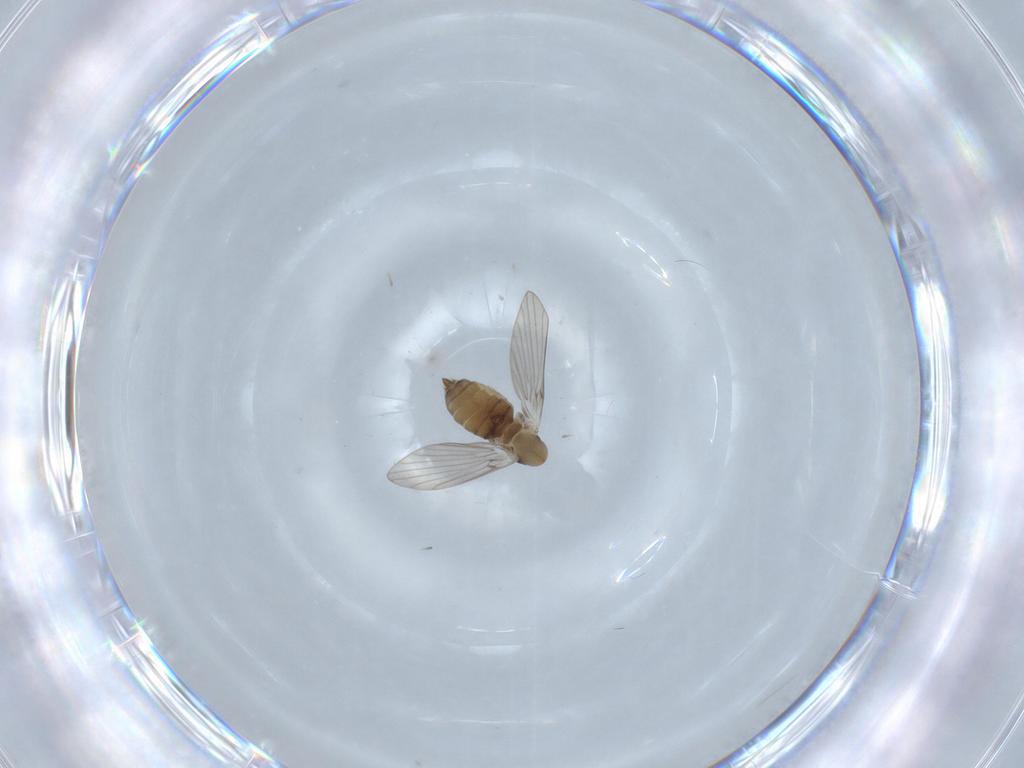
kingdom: Animalia
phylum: Arthropoda
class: Insecta
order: Diptera
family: Psychodidae
